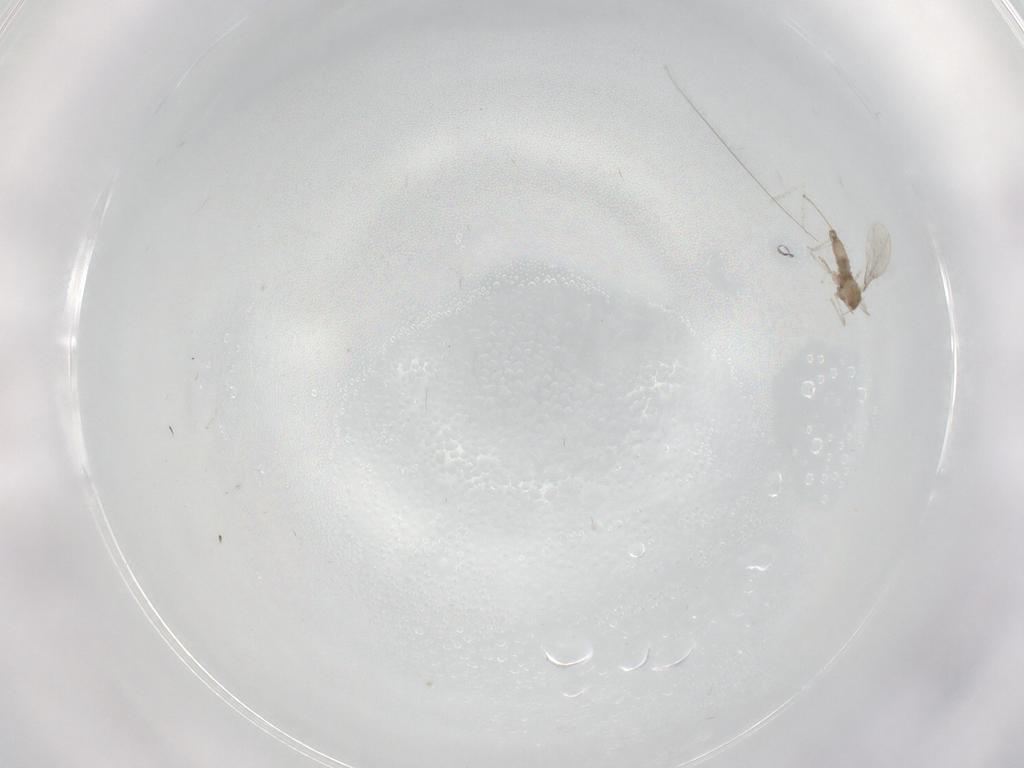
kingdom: Animalia
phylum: Arthropoda
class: Insecta
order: Diptera
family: Cecidomyiidae
